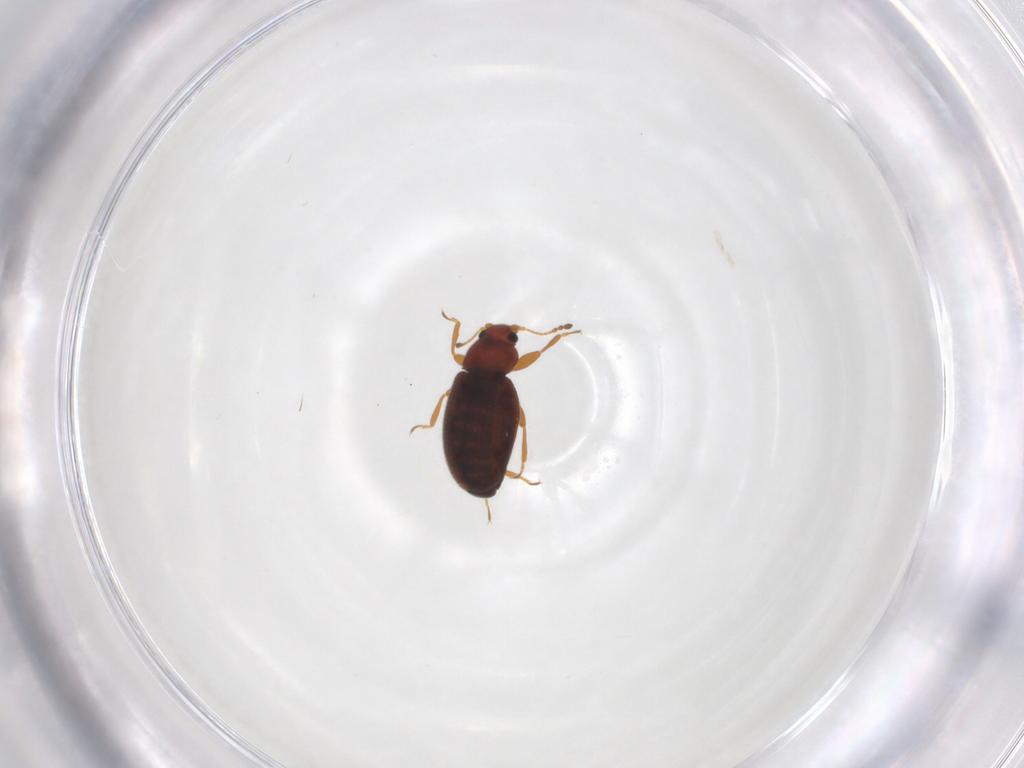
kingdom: Animalia
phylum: Arthropoda
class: Insecta
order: Coleoptera
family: Latridiidae
